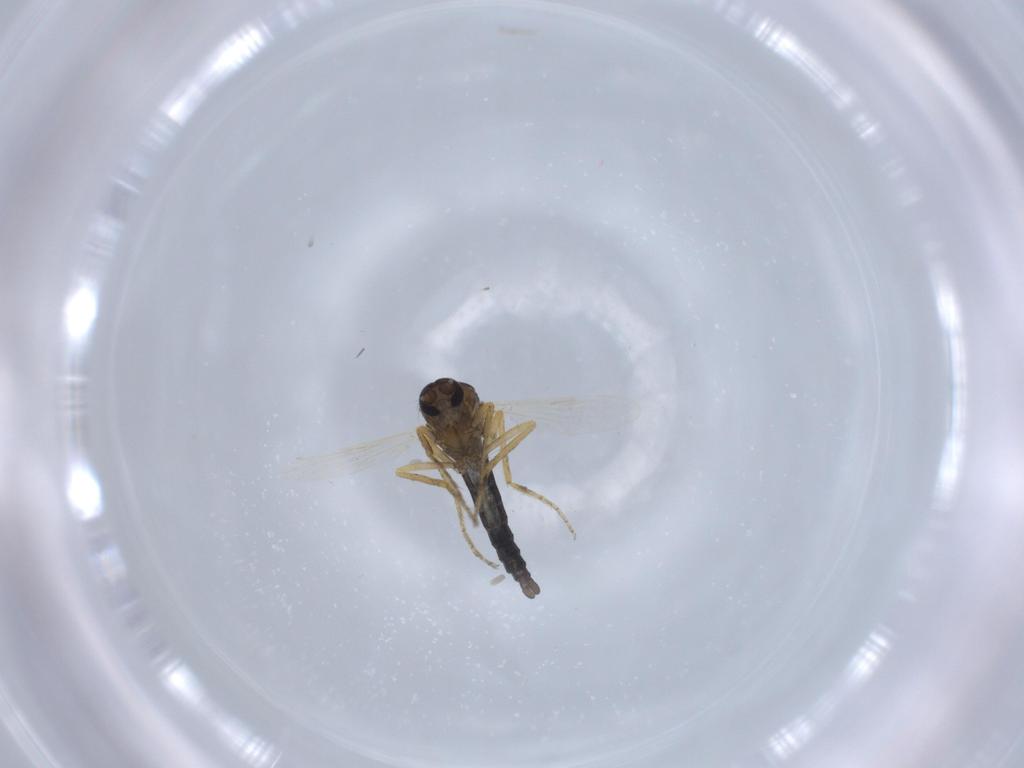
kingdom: Animalia
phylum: Arthropoda
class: Insecta
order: Diptera
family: Ceratopogonidae
